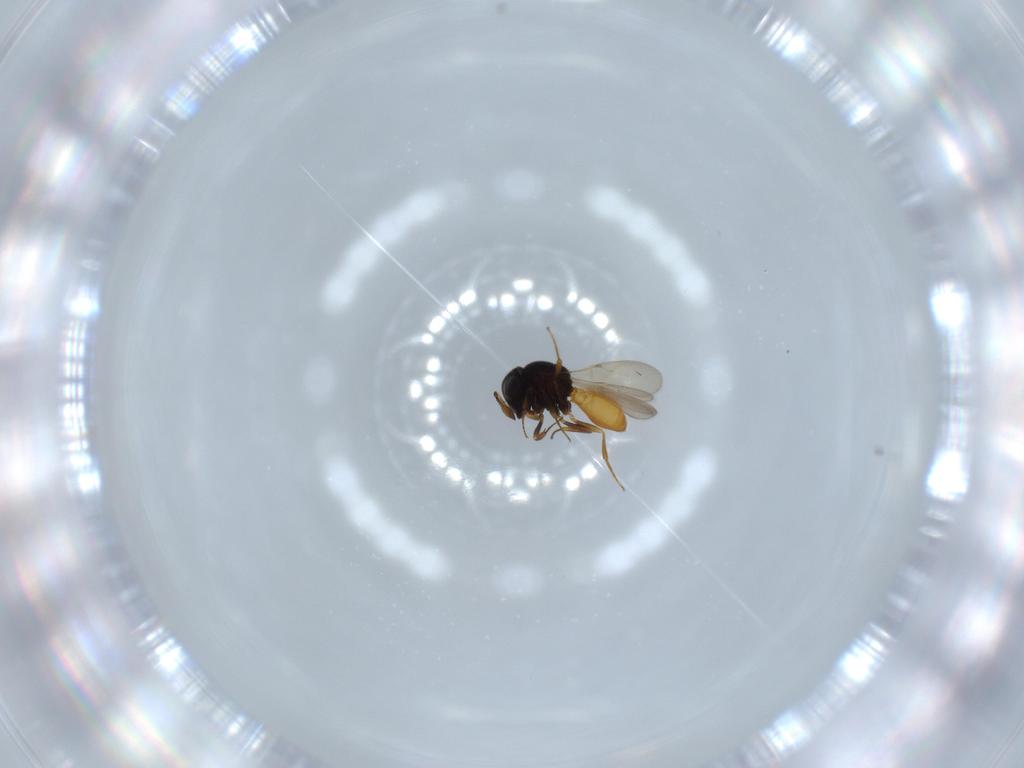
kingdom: Animalia
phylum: Arthropoda
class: Insecta
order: Hymenoptera
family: Scelionidae
